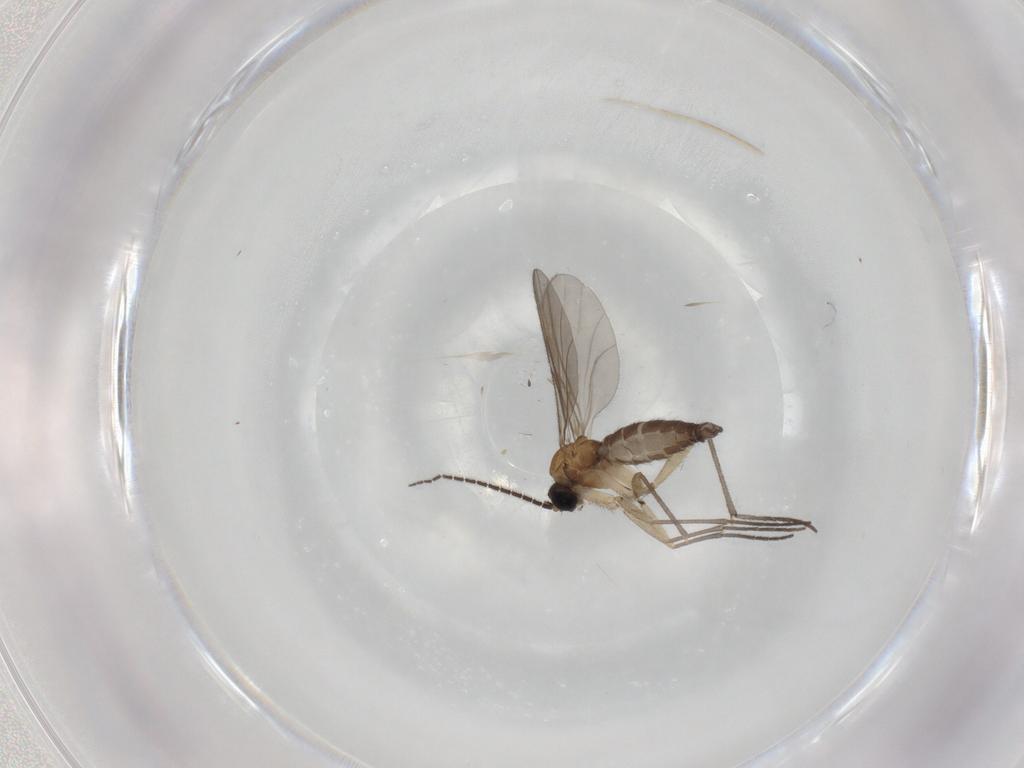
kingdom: Animalia
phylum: Arthropoda
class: Insecta
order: Diptera
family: Sciaridae
